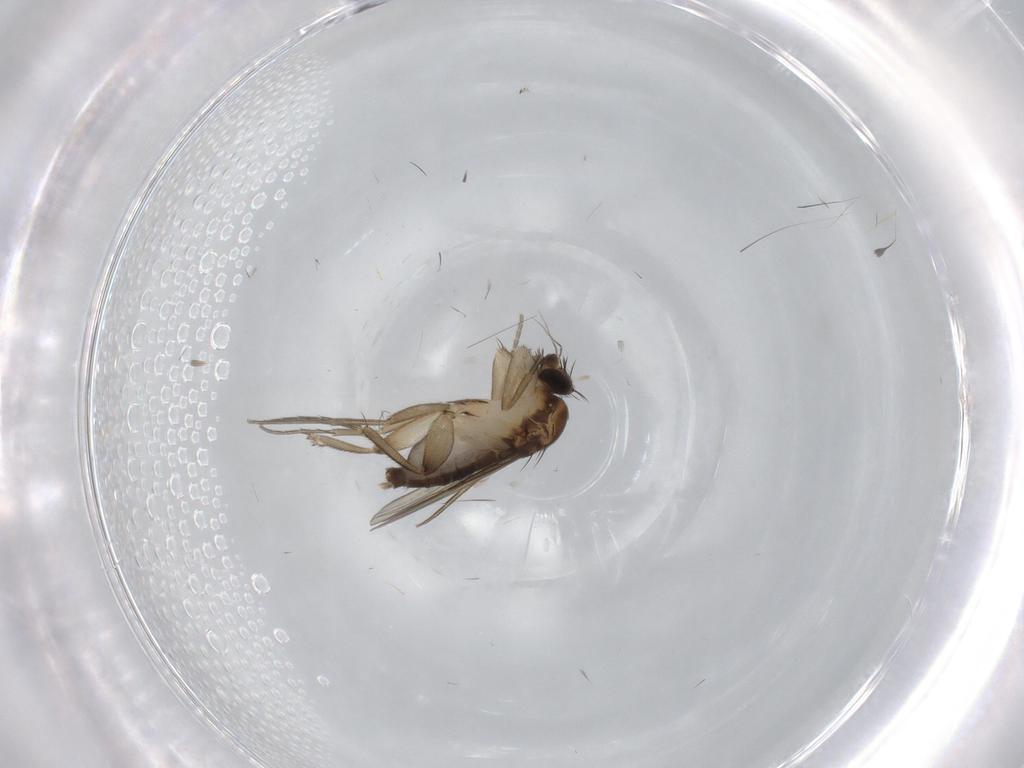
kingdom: Animalia
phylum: Arthropoda
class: Insecta
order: Diptera
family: Phoridae
